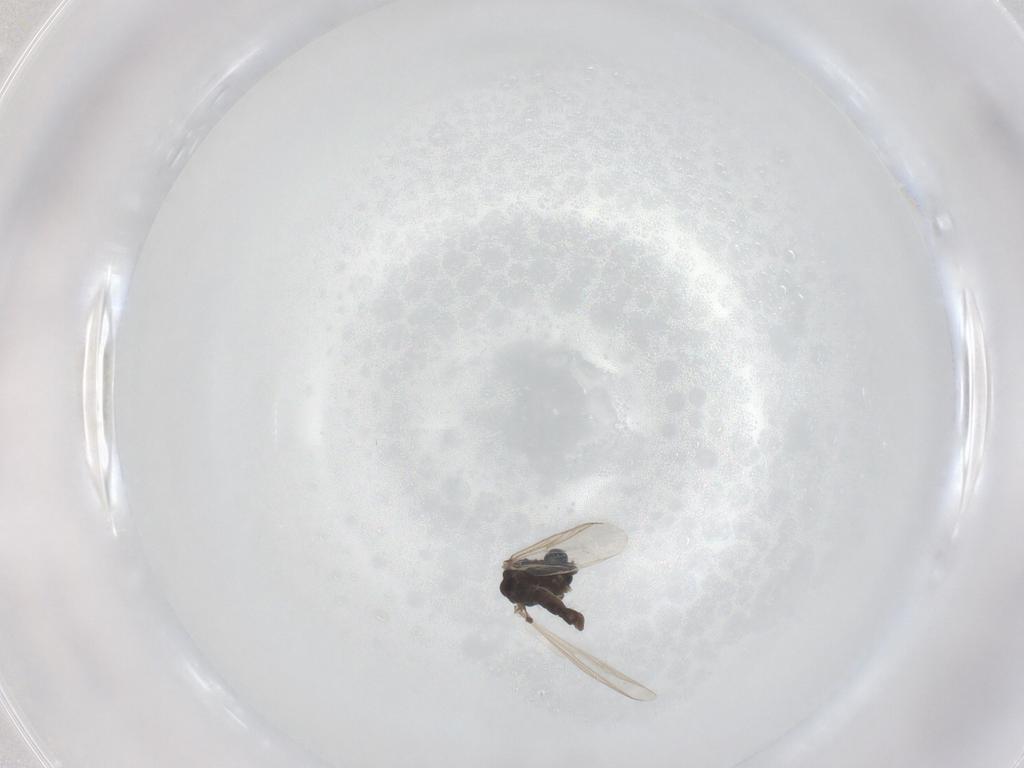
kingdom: Animalia
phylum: Arthropoda
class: Insecta
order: Diptera
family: Chironomidae
